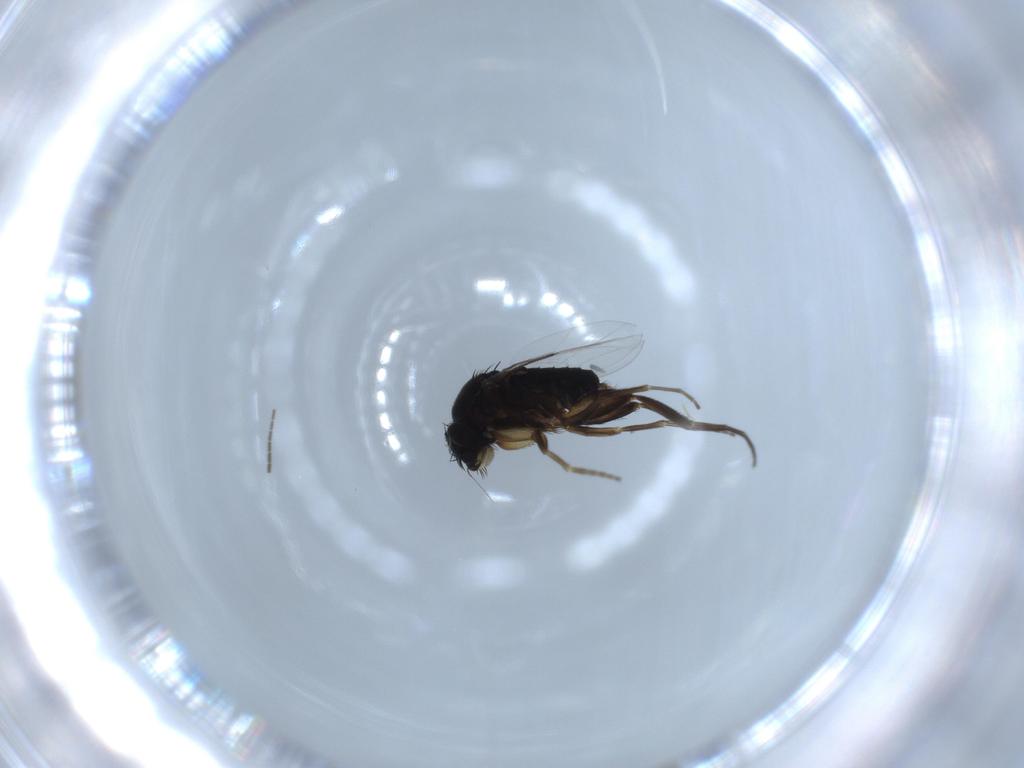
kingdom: Animalia
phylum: Arthropoda
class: Insecta
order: Diptera
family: Phoridae
